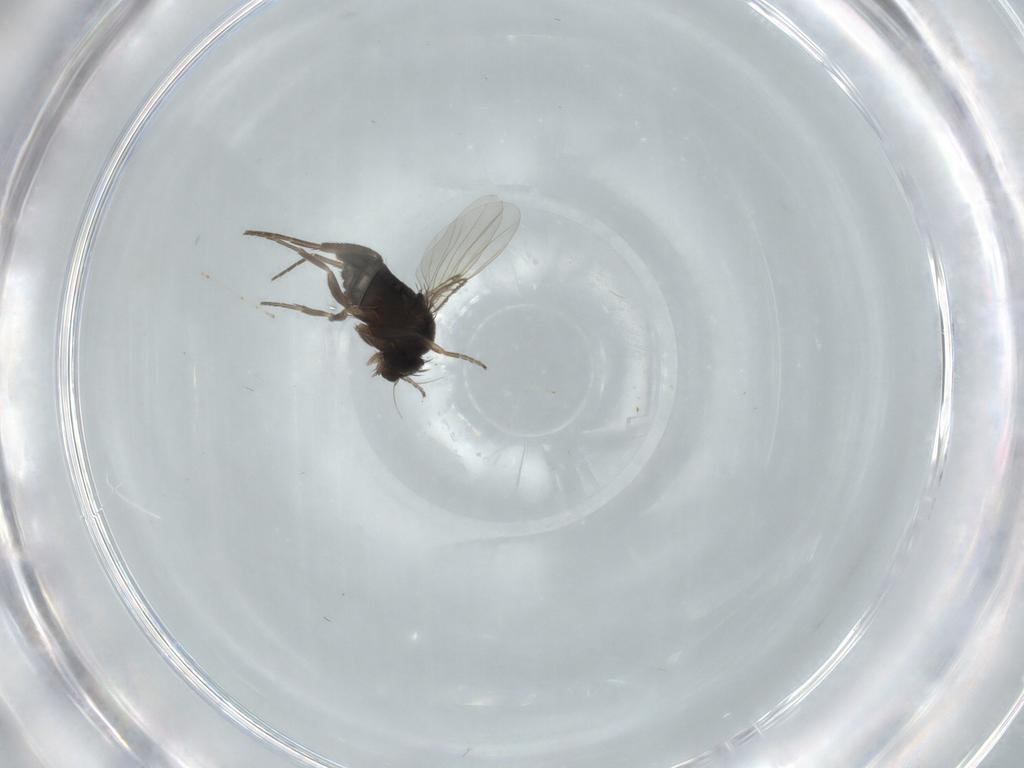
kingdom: Animalia
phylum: Arthropoda
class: Insecta
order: Diptera
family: Phoridae
